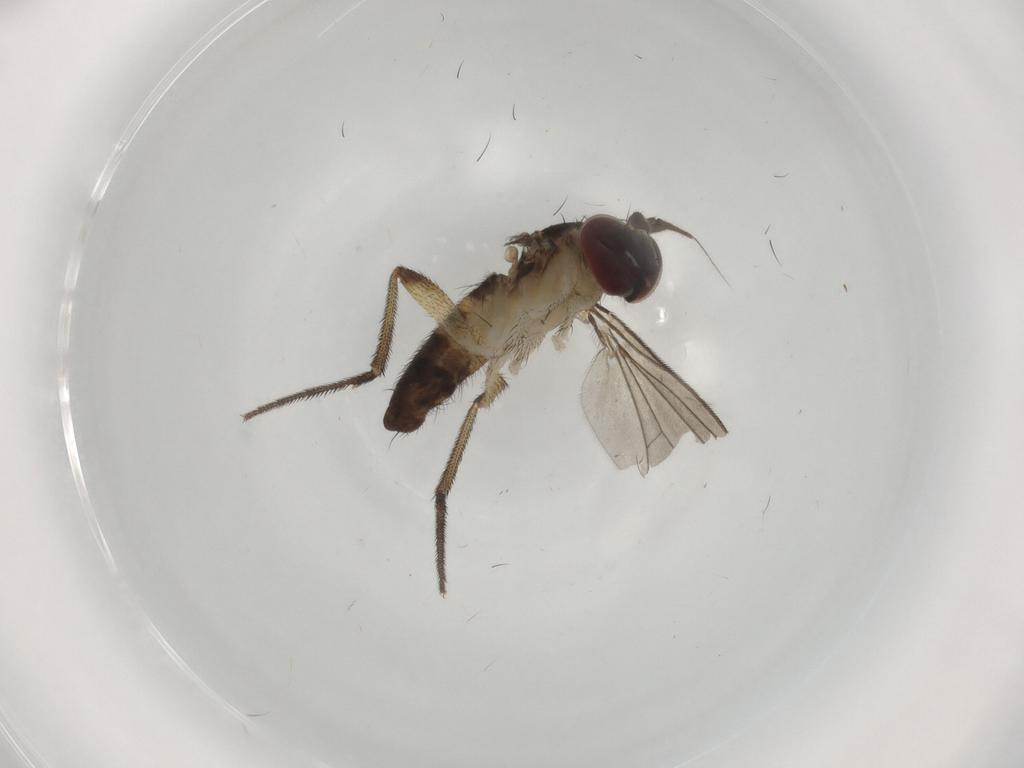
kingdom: Animalia
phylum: Arthropoda
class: Insecta
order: Diptera
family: Dolichopodidae
